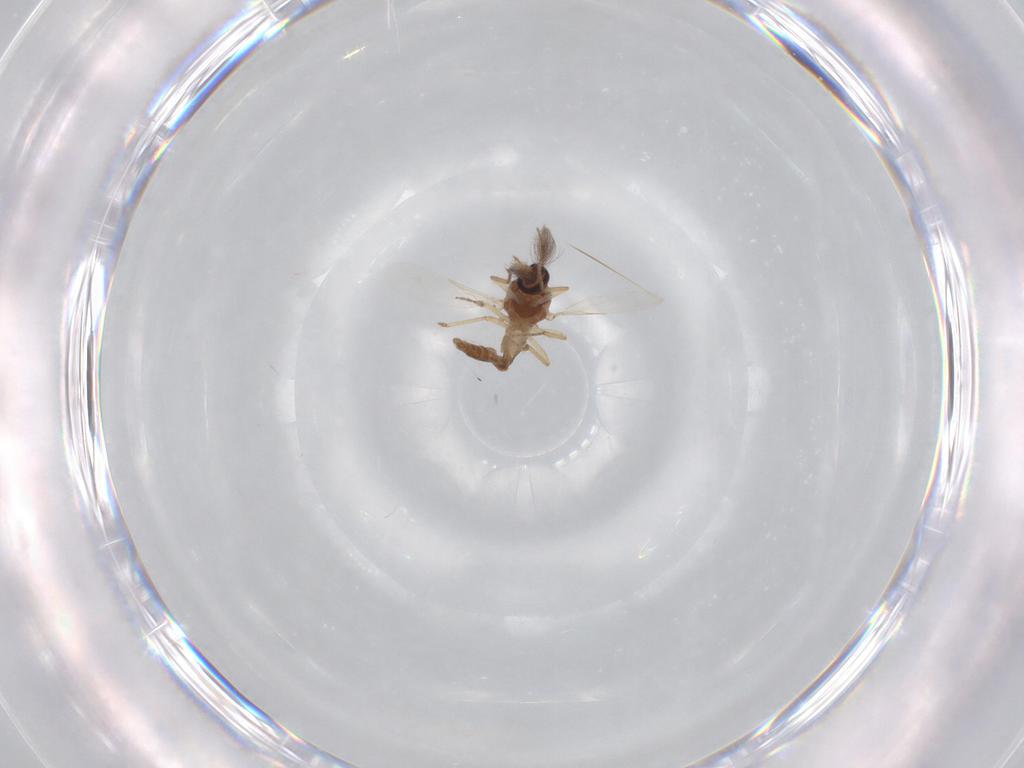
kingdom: Animalia
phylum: Arthropoda
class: Insecta
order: Diptera
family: Ceratopogonidae
